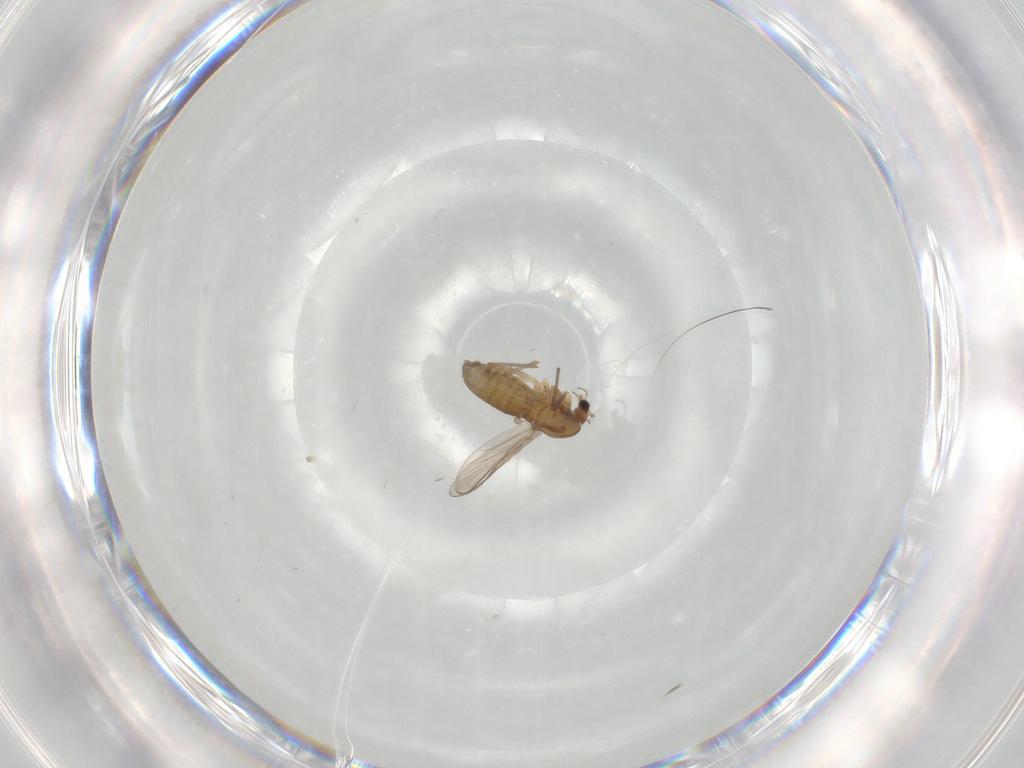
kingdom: Animalia
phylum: Arthropoda
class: Insecta
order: Diptera
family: Chironomidae
